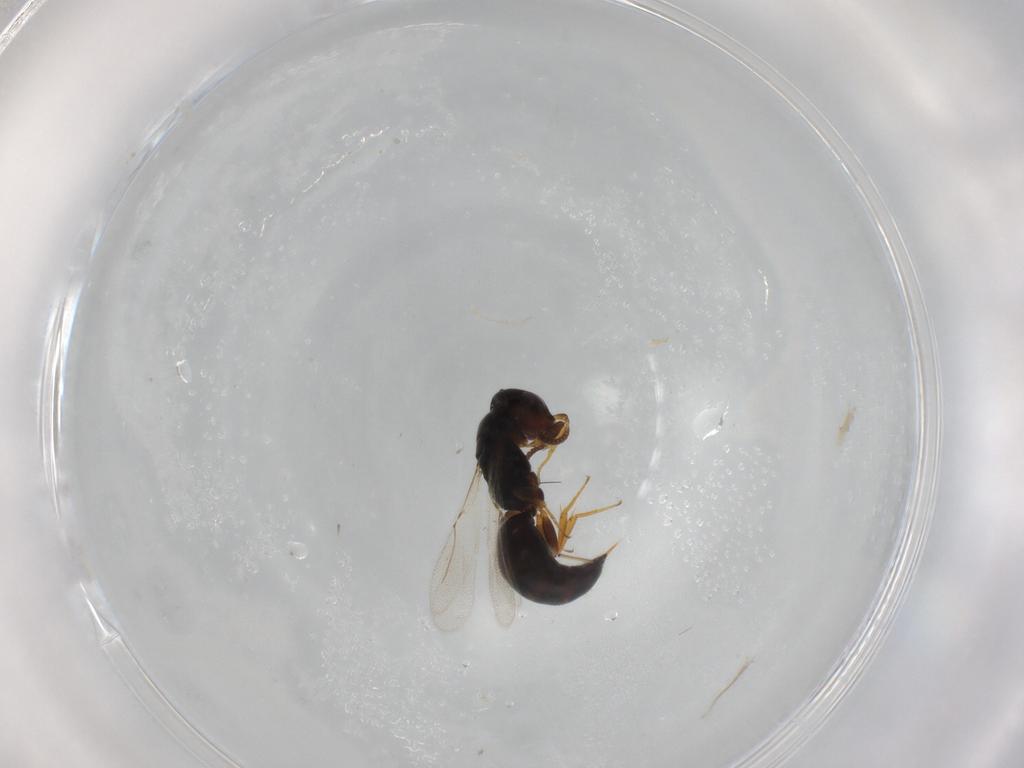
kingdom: Animalia
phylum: Arthropoda
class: Insecta
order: Hymenoptera
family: Bethylidae
